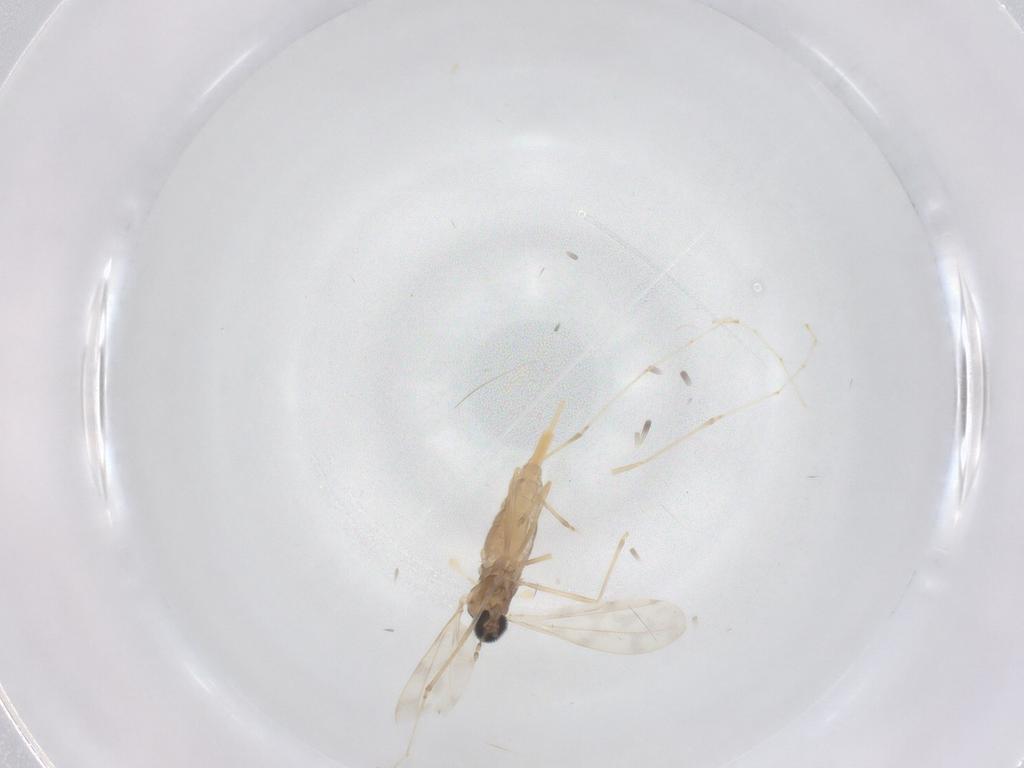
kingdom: Animalia
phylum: Arthropoda
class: Insecta
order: Diptera
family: Cecidomyiidae
